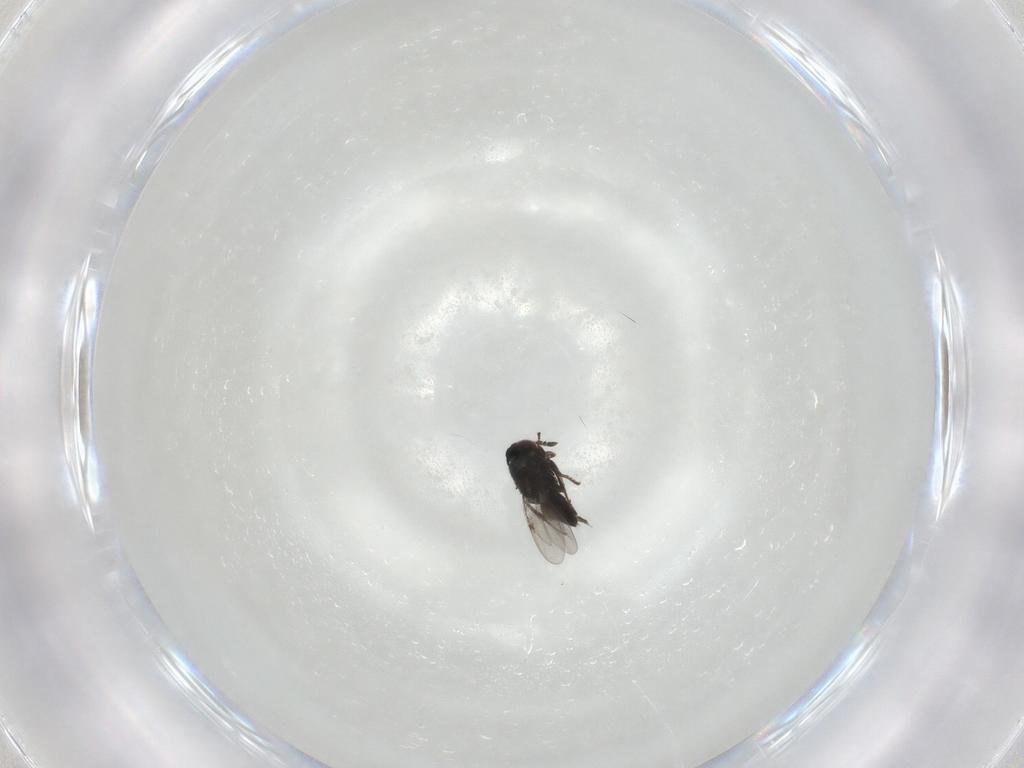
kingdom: Animalia
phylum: Arthropoda
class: Insecta
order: Hymenoptera
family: Encyrtidae
